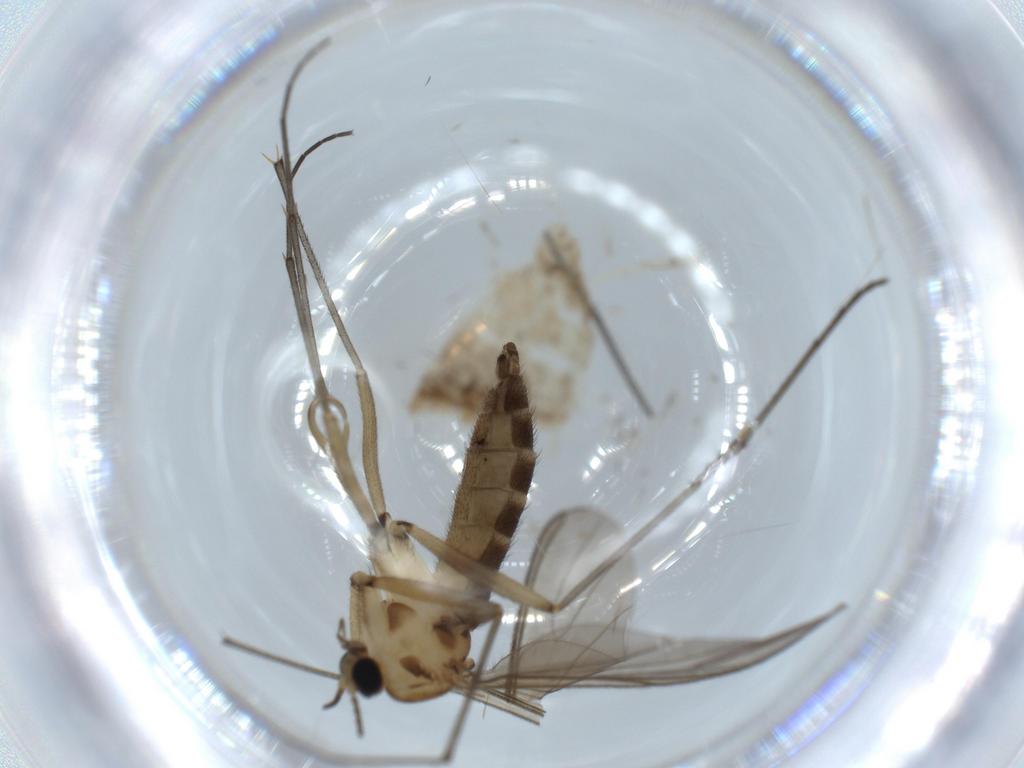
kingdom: Animalia
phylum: Arthropoda
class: Insecta
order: Diptera
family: Sciaridae
